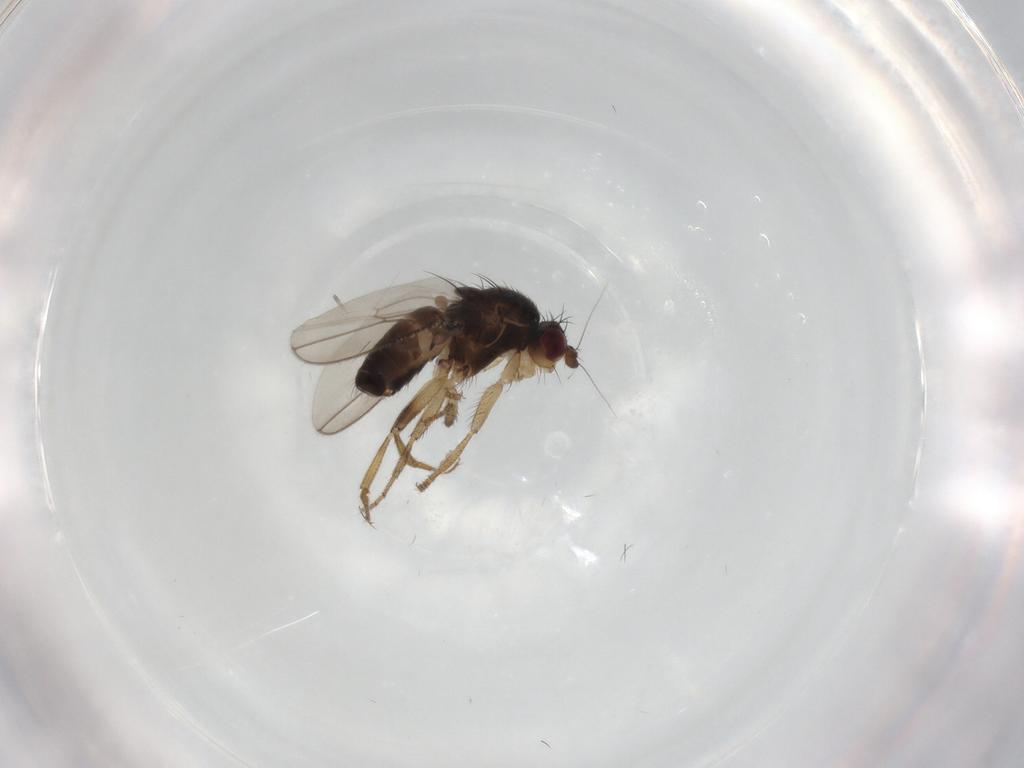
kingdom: Animalia
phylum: Arthropoda
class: Insecta
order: Diptera
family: Sphaeroceridae
